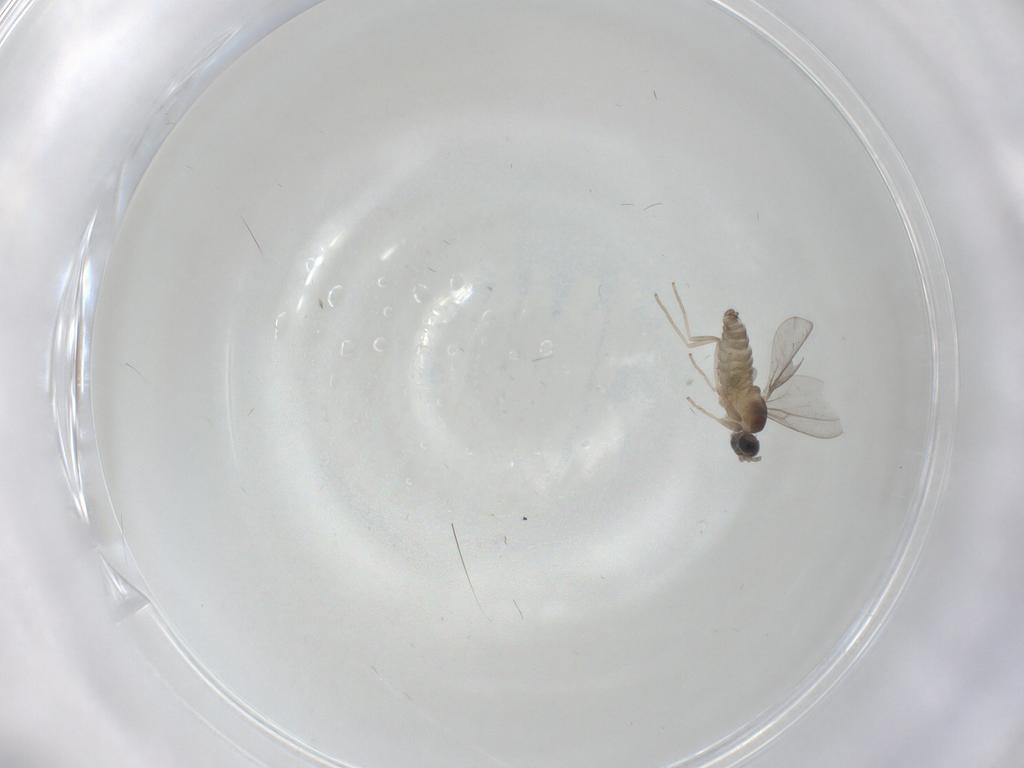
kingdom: Animalia
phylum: Arthropoda
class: Insecta
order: Diptera
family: Cecidomyiidae
